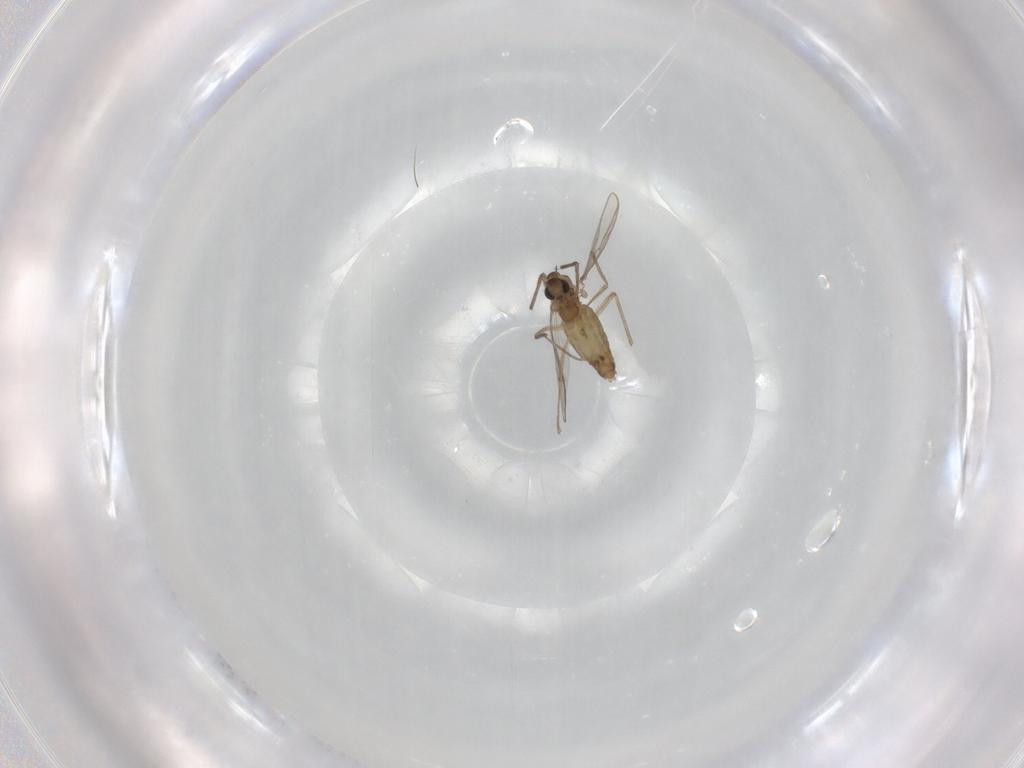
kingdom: Animalia
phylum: Arthropoda
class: Insecta
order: Diptera
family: Chironomidae
